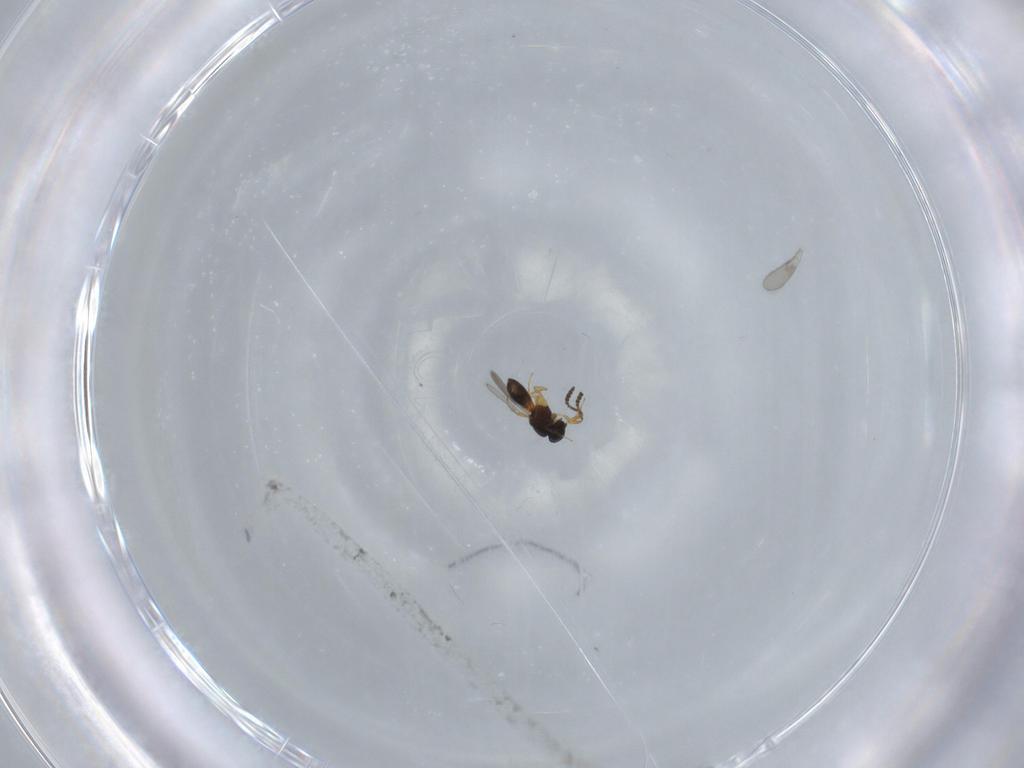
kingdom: Animalia
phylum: Arthropoda
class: Insecta
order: Hymenoptera
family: Scelionidae
